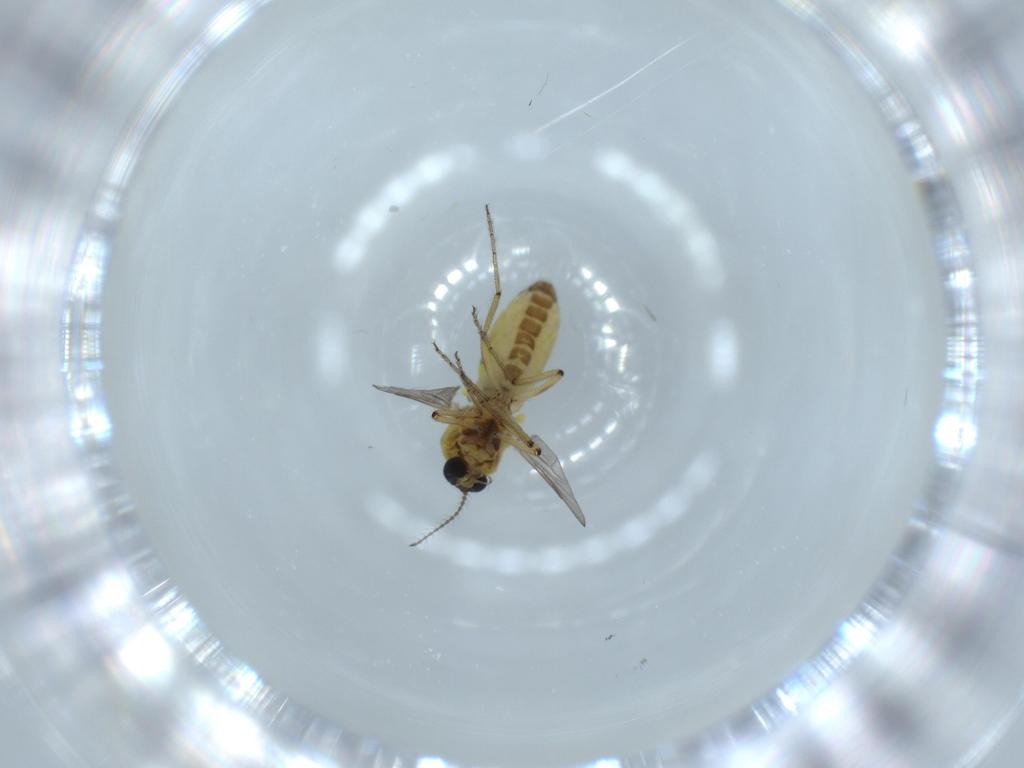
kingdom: Animalia
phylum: Arthropoda
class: Insecta
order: Diptera
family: Ceratopogonidae
